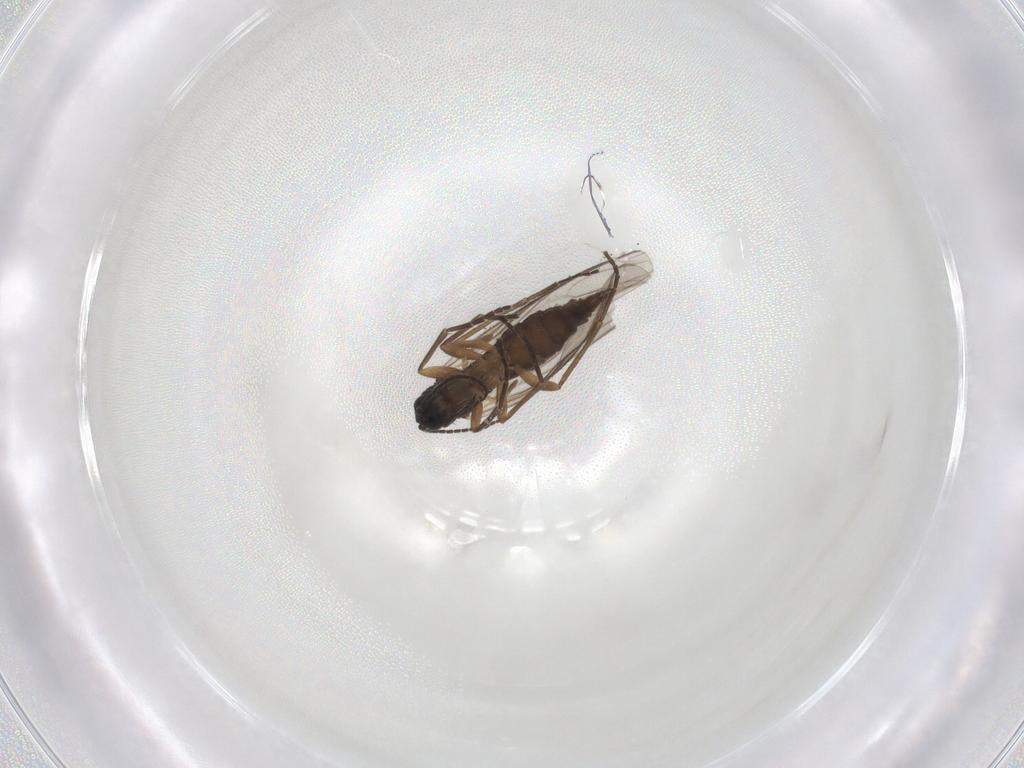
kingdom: Animalia
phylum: Arthropoda
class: Insecta
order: Diptera
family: Sciaridae
